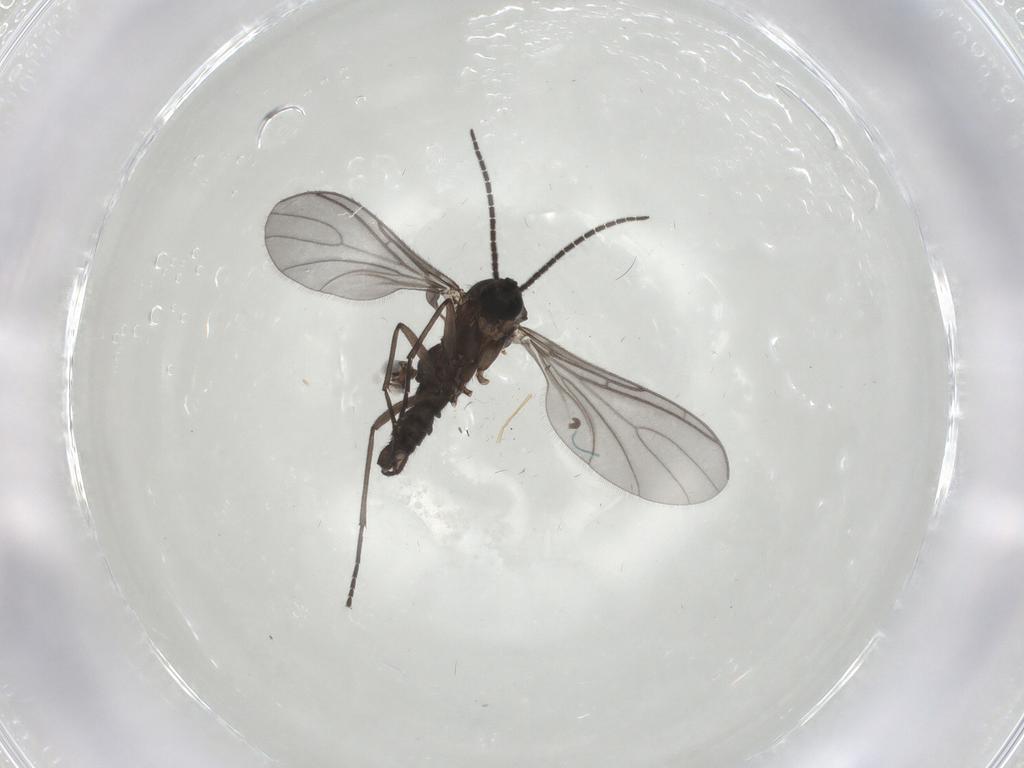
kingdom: Animalia
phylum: Arthropoda
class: Insecta
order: Diptera
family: Sciaridae
